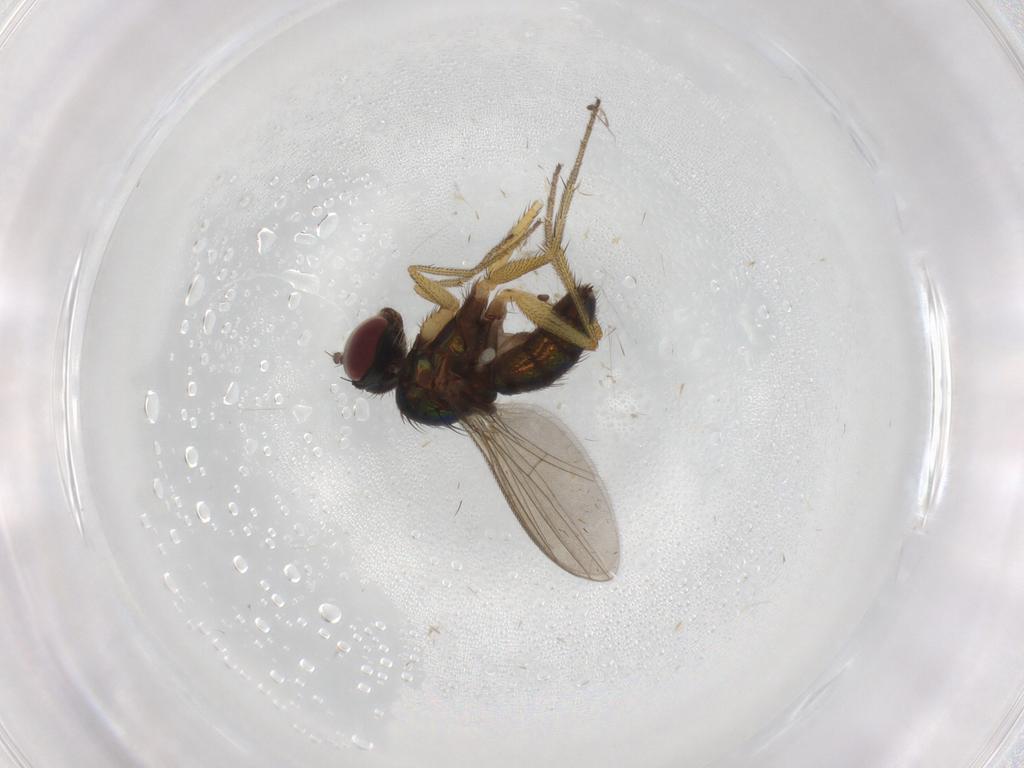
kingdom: Animalia
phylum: Arthropoda
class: Insecta
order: Diptera
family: Dolichopodidae
